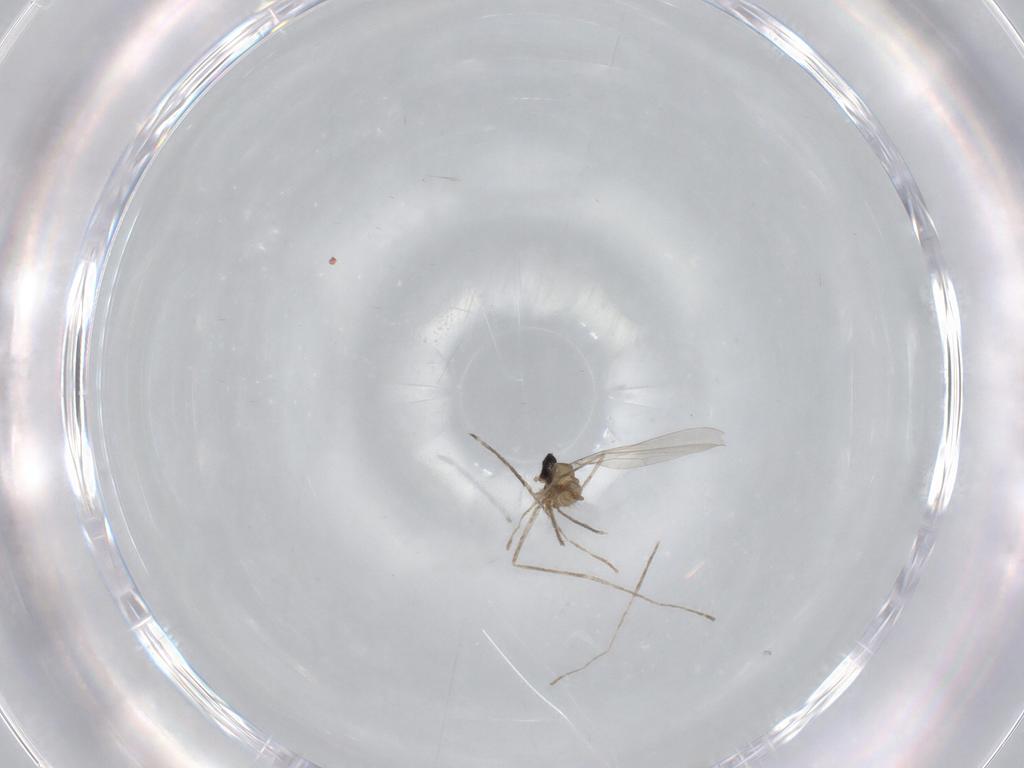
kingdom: Animalia
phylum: Arthropoda
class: Insecta
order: Diptera
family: Cecidomyiidae
